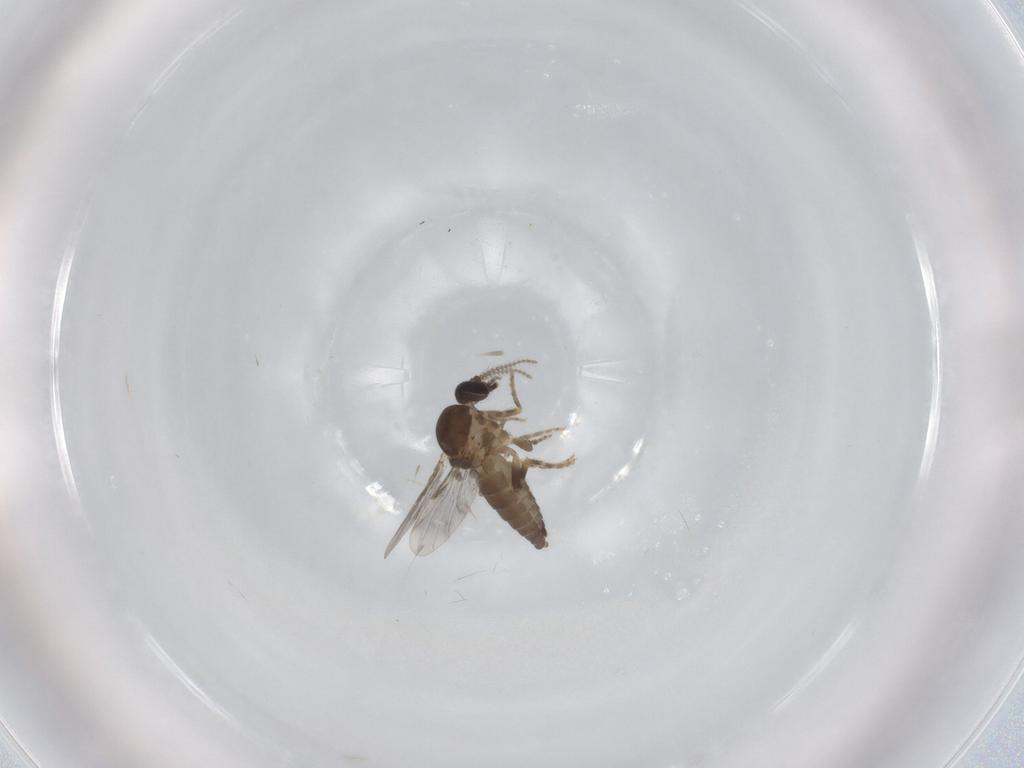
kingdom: Animalia
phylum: Arthropoda
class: Insecta
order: Diptera
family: Ceratopogonidae
